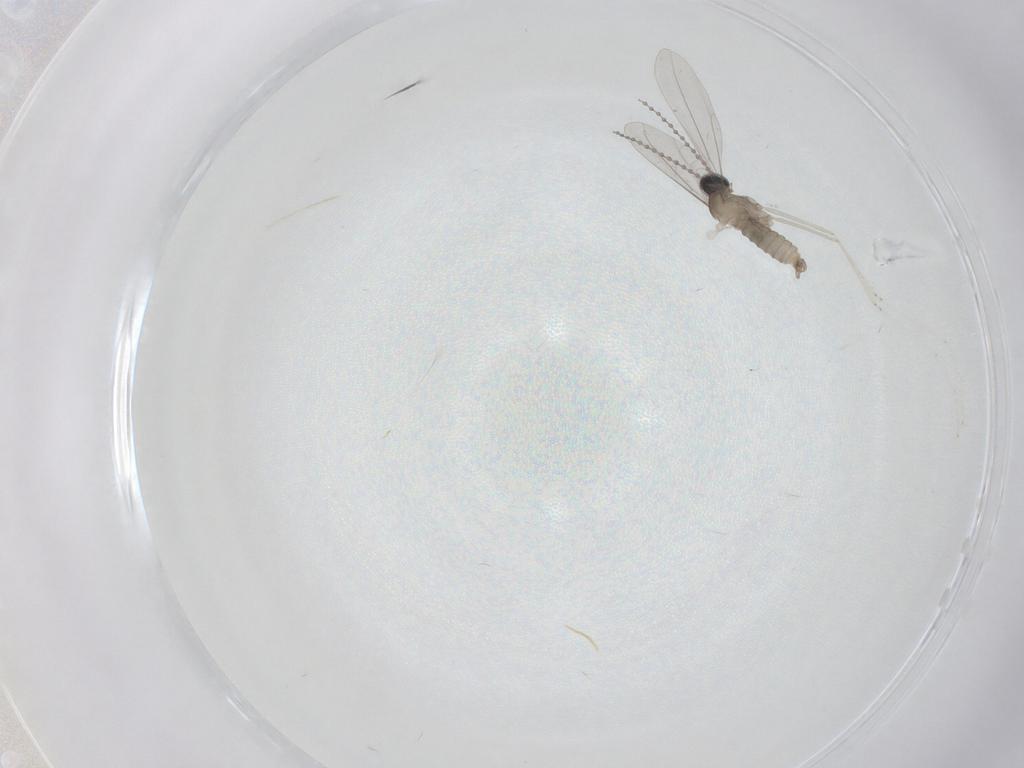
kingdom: Animalia
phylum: Arthropoda
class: Insecta
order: Diptera
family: Cecidomyiidae
